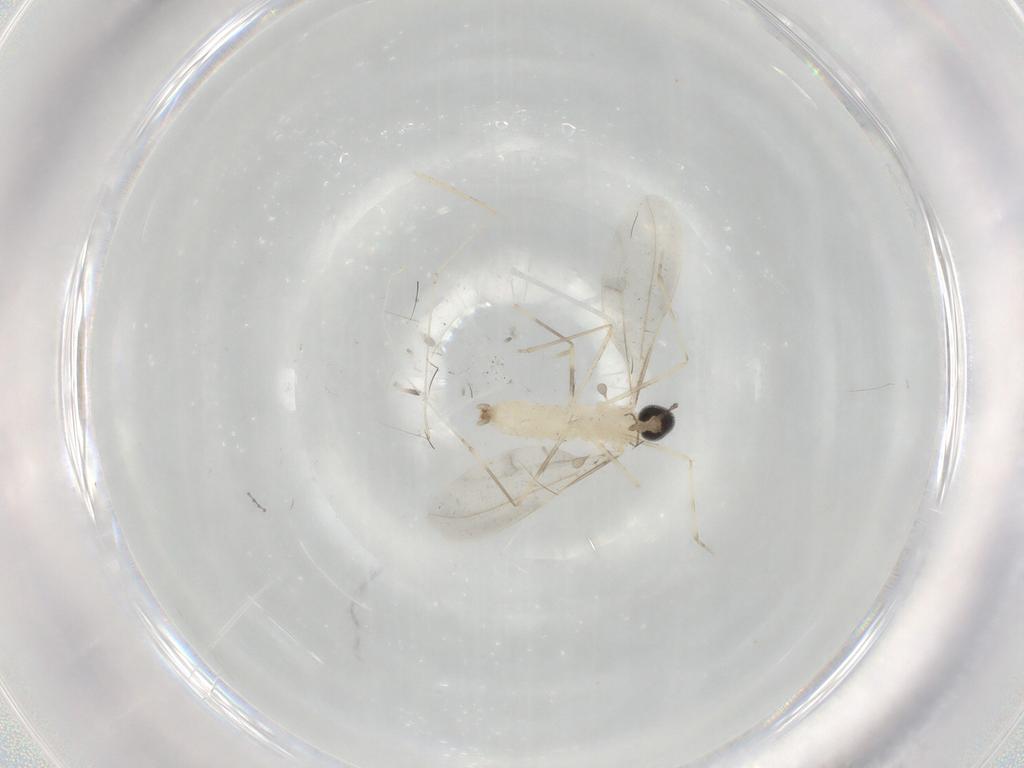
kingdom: Animalia
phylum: Arthropoda
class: Insecta
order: Diptera
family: Cecidomyiidae
